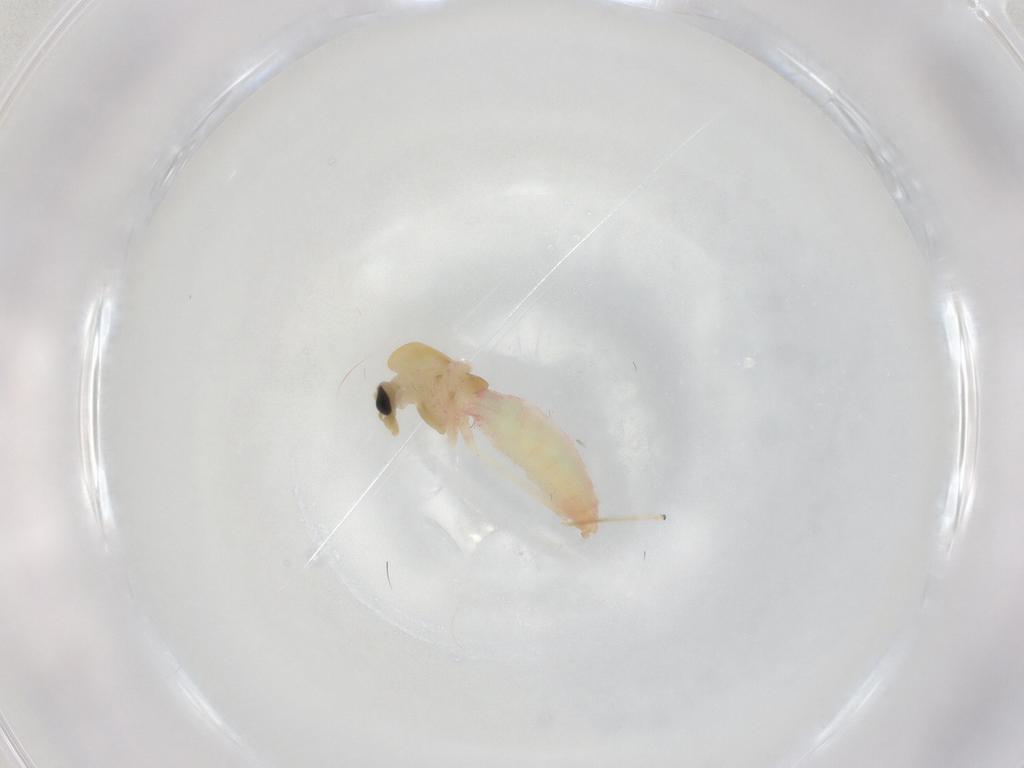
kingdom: Animalia
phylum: Arthropoda
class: Insecta
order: Diptera
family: Chironomidae
